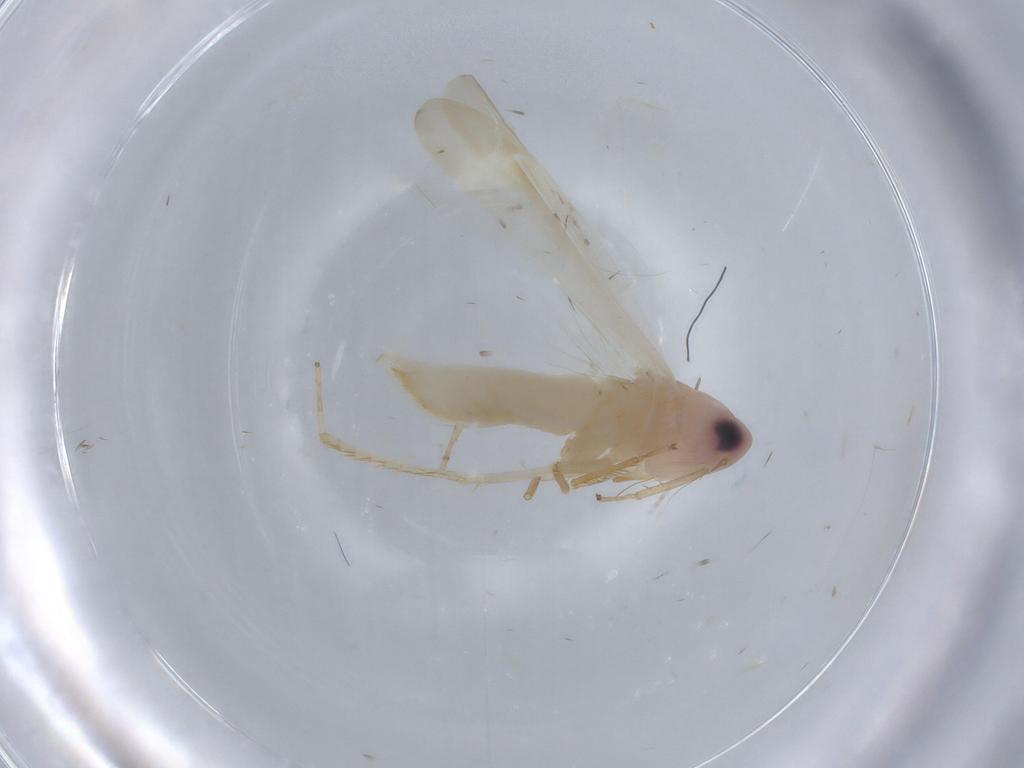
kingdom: Animalia
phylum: Arthropoda
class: Insecta
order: Hemiptera
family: Cicadellidae
